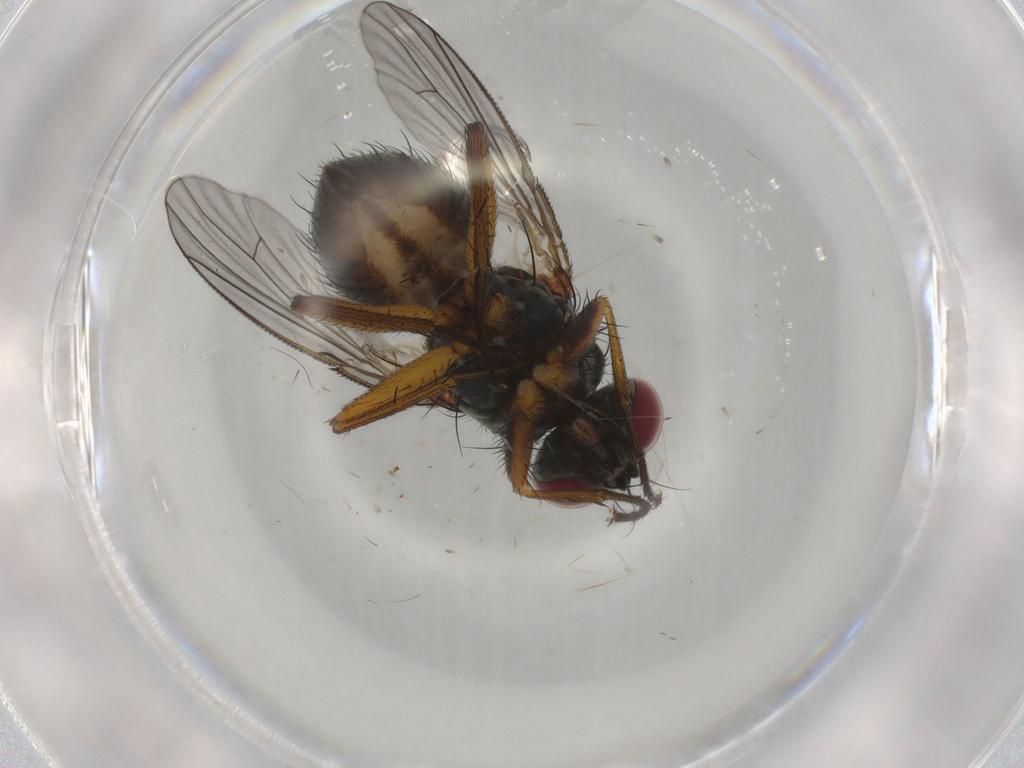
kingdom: Animalia
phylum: Arthropoda
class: Insecta
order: Diptera
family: Muscidae
